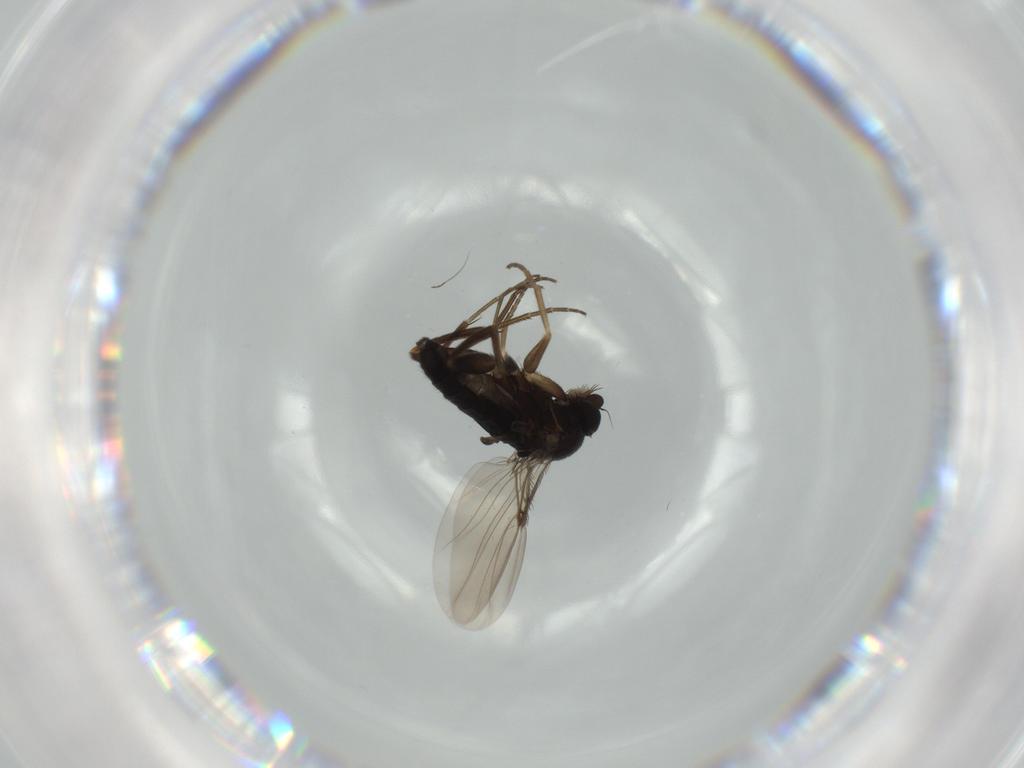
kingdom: Animalia
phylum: Arthropoda
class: Insecta
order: Diptera
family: Phoridae
